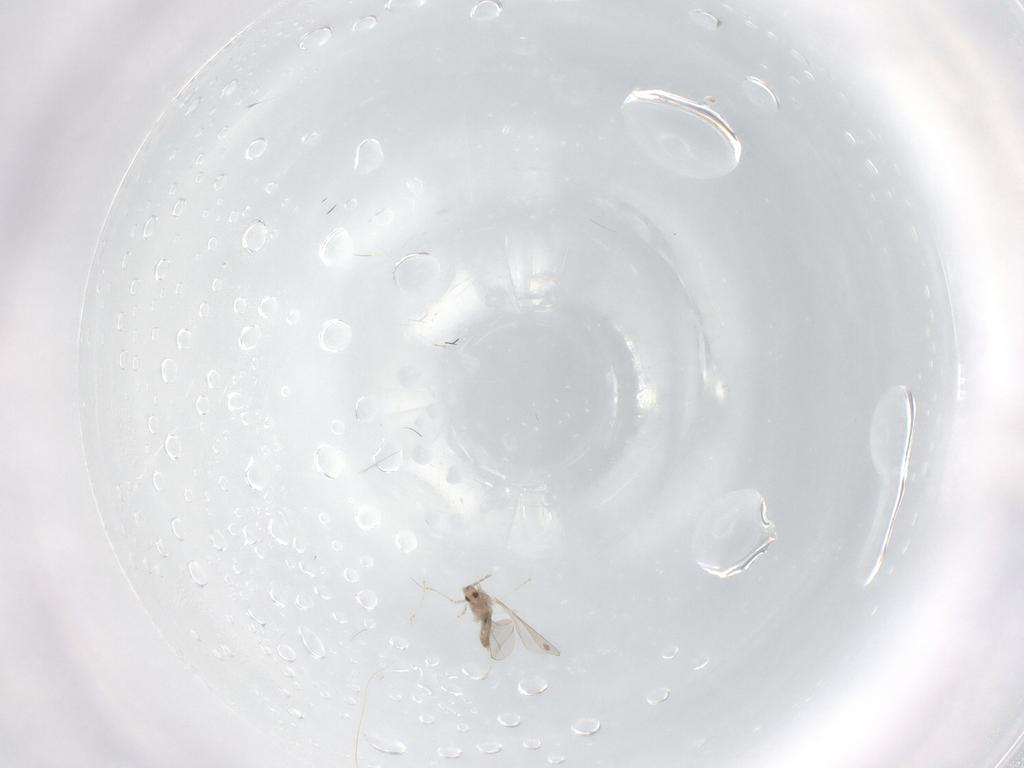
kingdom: Animalia
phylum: Arthropoda
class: Insecta
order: Diptera
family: Cecidomyiidae
